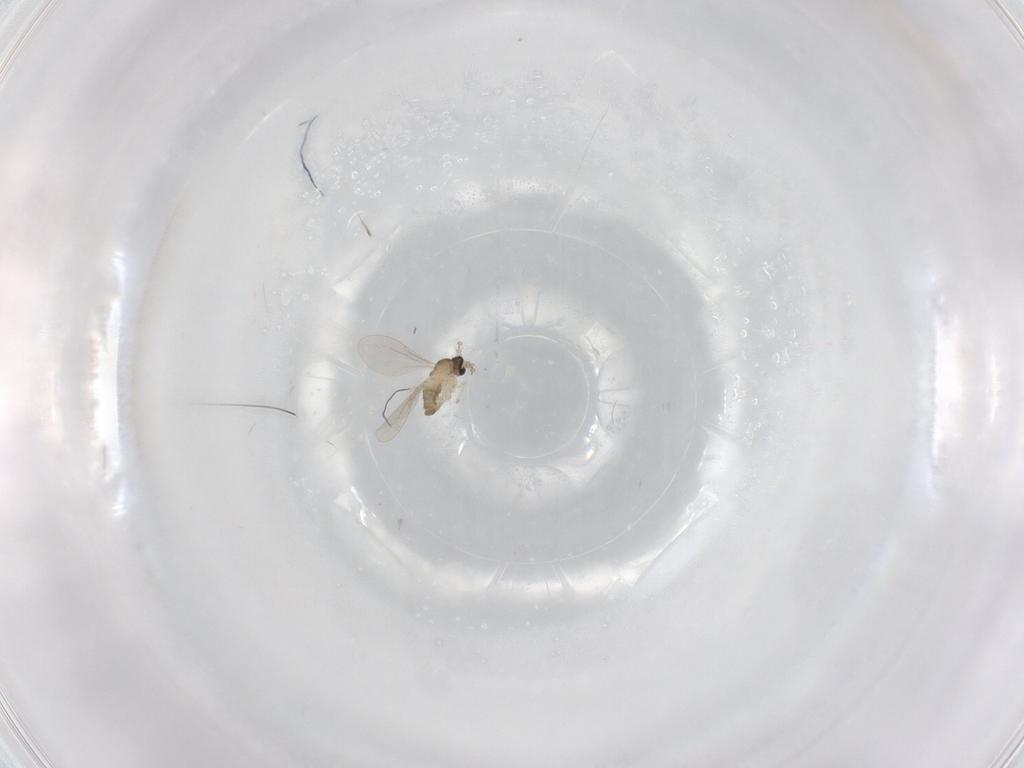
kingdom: Animalia
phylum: Arthropoda
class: Insecta
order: Diptera
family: Cecidomyiidae
